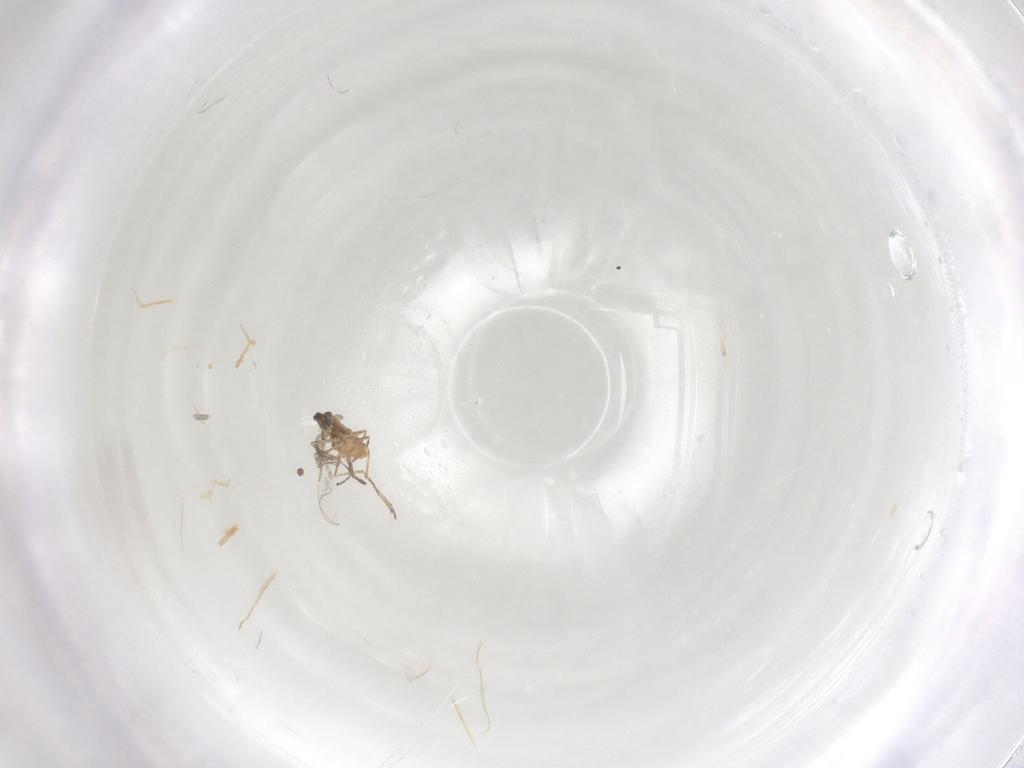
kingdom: Animalia
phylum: Arthropoda
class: Insecta
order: Diptera
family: Cecidomyiidae
